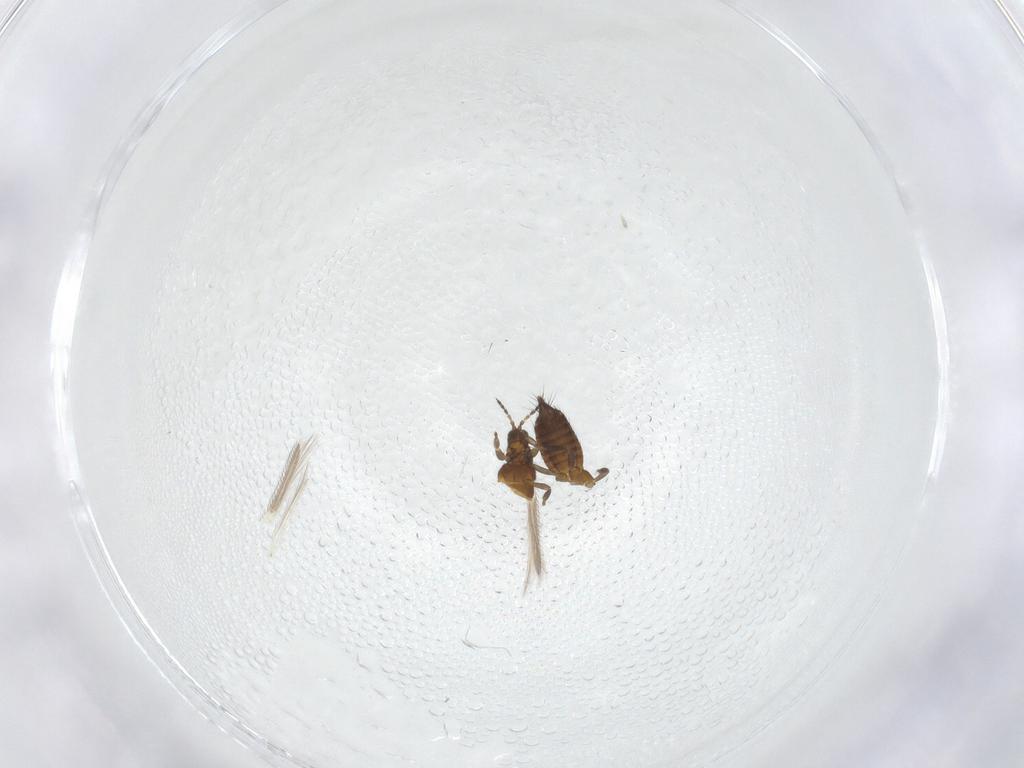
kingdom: Animalia
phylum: Arthropoda
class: Insecta
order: Thysanoptera
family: Thripidae
